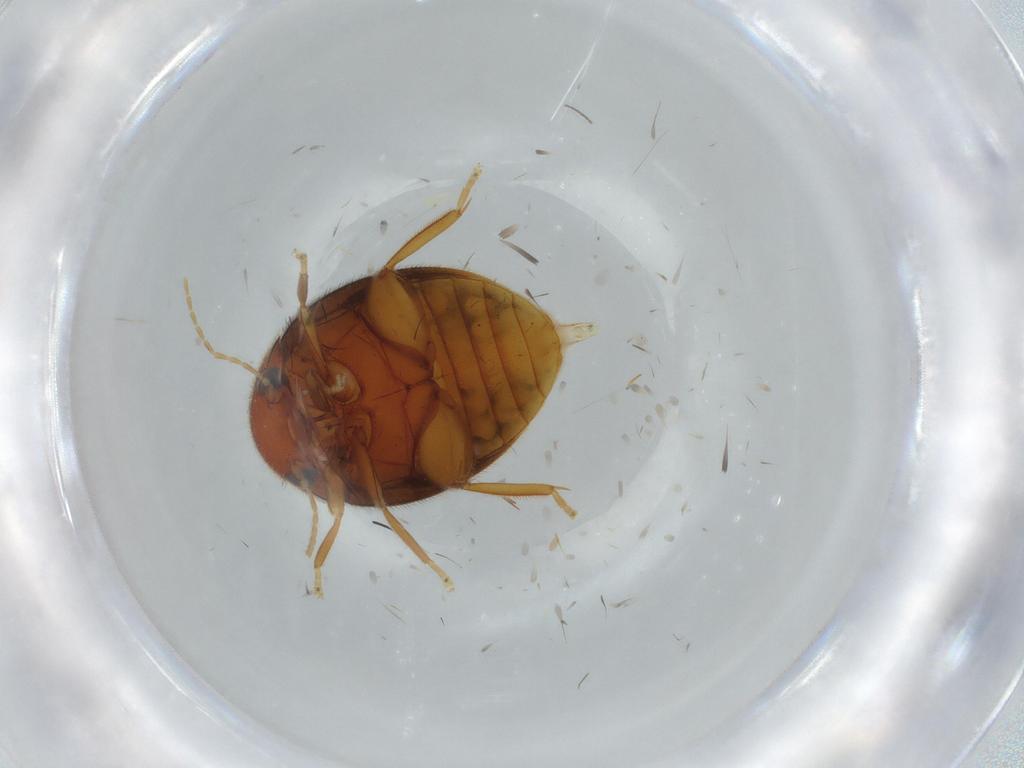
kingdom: Animalia
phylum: Arthropoda
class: Insecta
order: Coleoptera
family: Scirtidae
